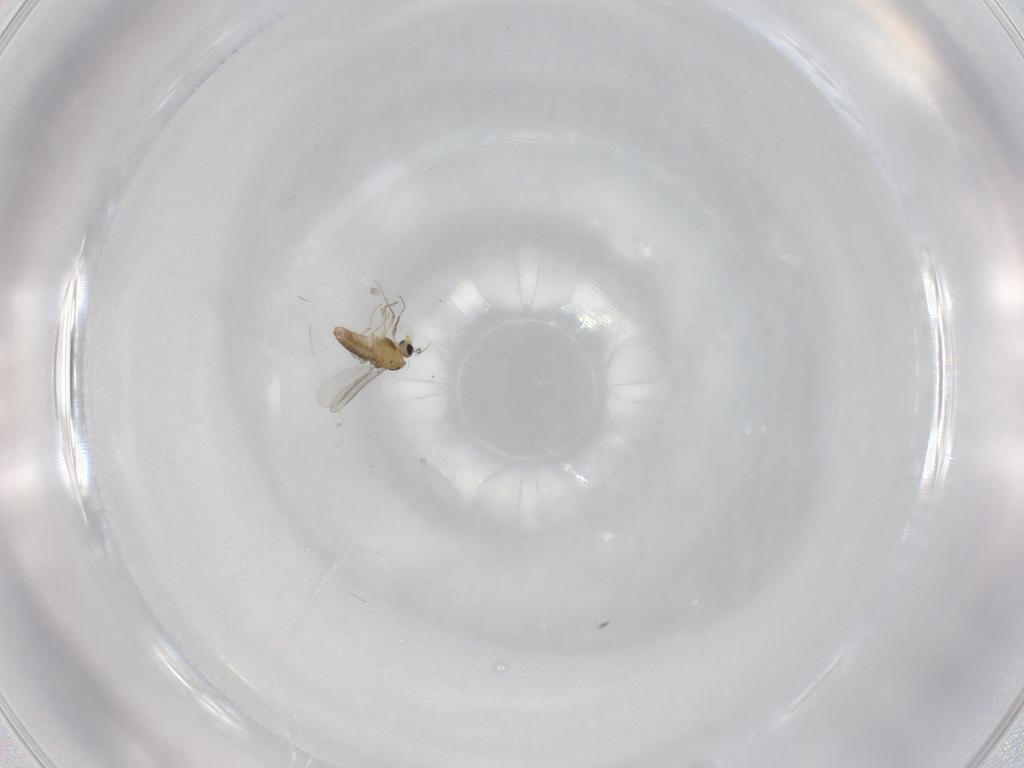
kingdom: Animalia
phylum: Arthropoda
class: Insecta
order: Diptera
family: Chironomidae
